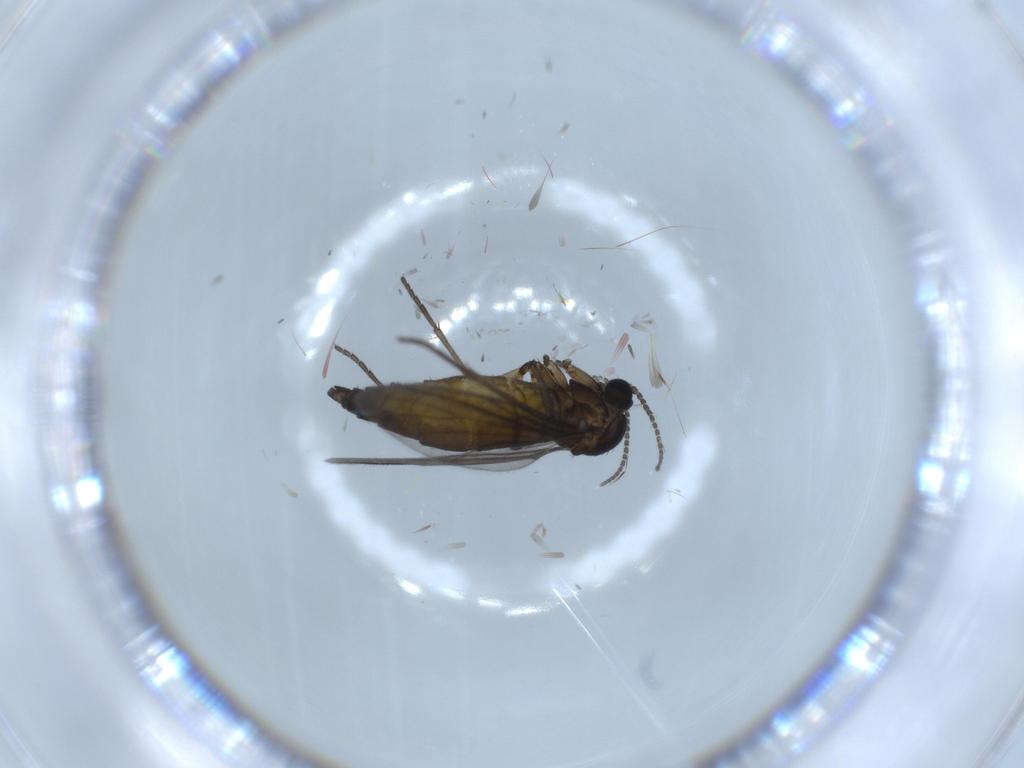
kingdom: Animalia
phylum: Arthropoda
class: Insecta
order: Diptera
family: Sciaridae
